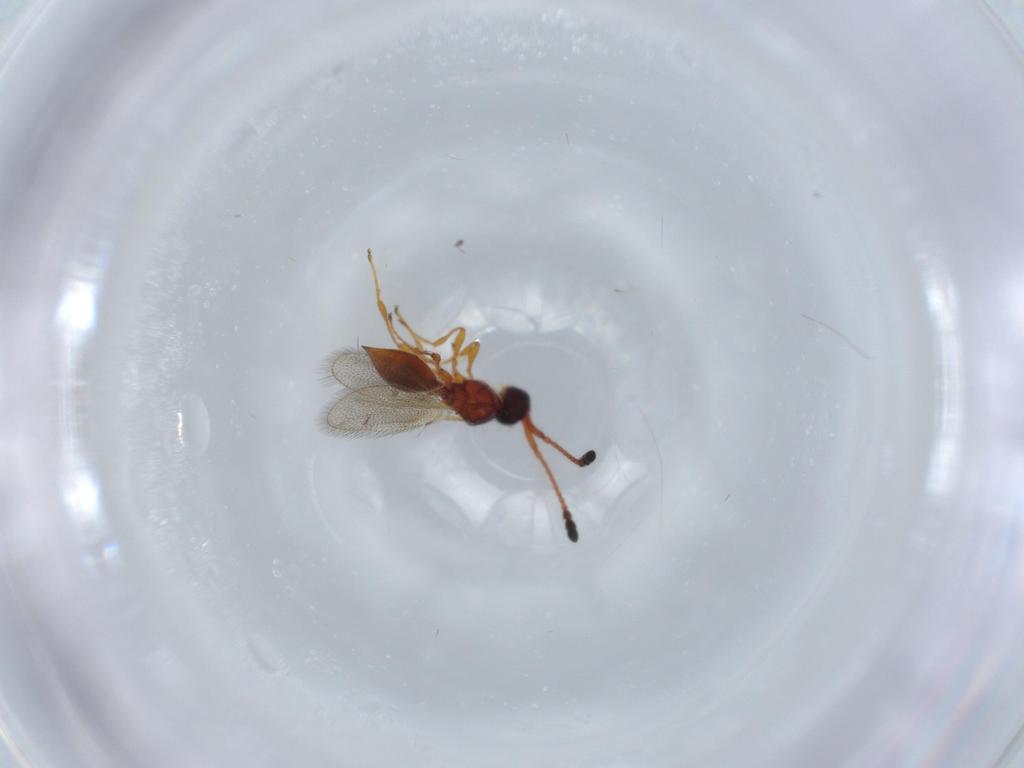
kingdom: Animalia
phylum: Arthropoda
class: Insecta
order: Hymenoptera
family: Diapriidae
